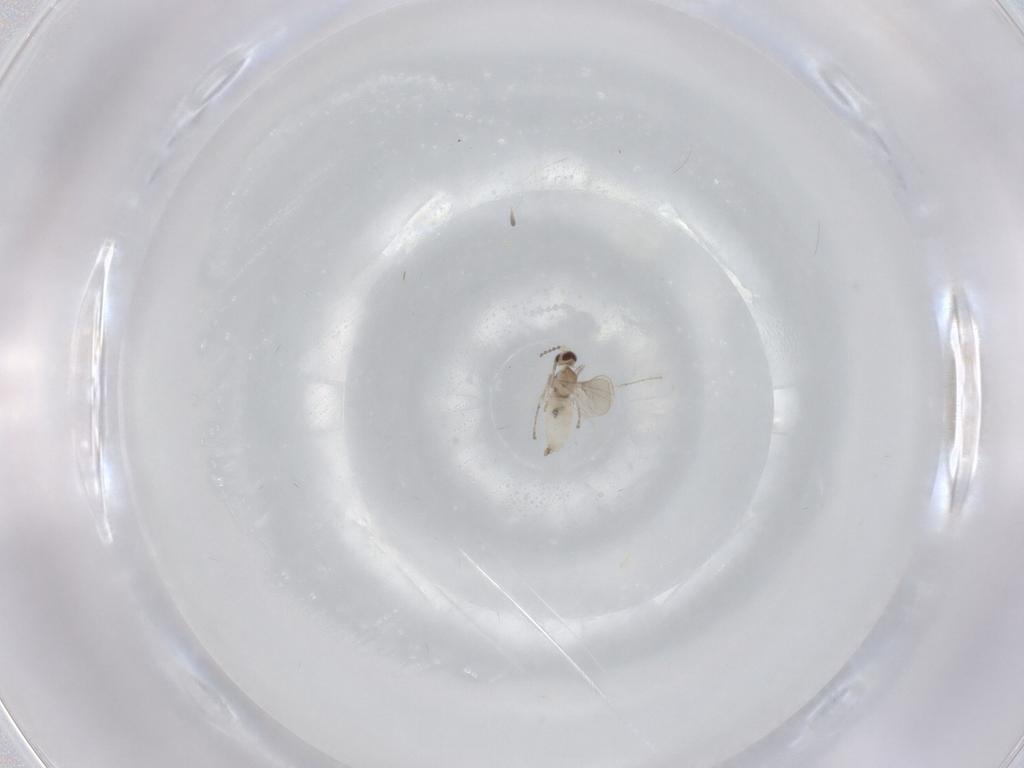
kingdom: Animalia
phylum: Arthropoda
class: Insecta
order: Diptera
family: Cecidomyiidae
